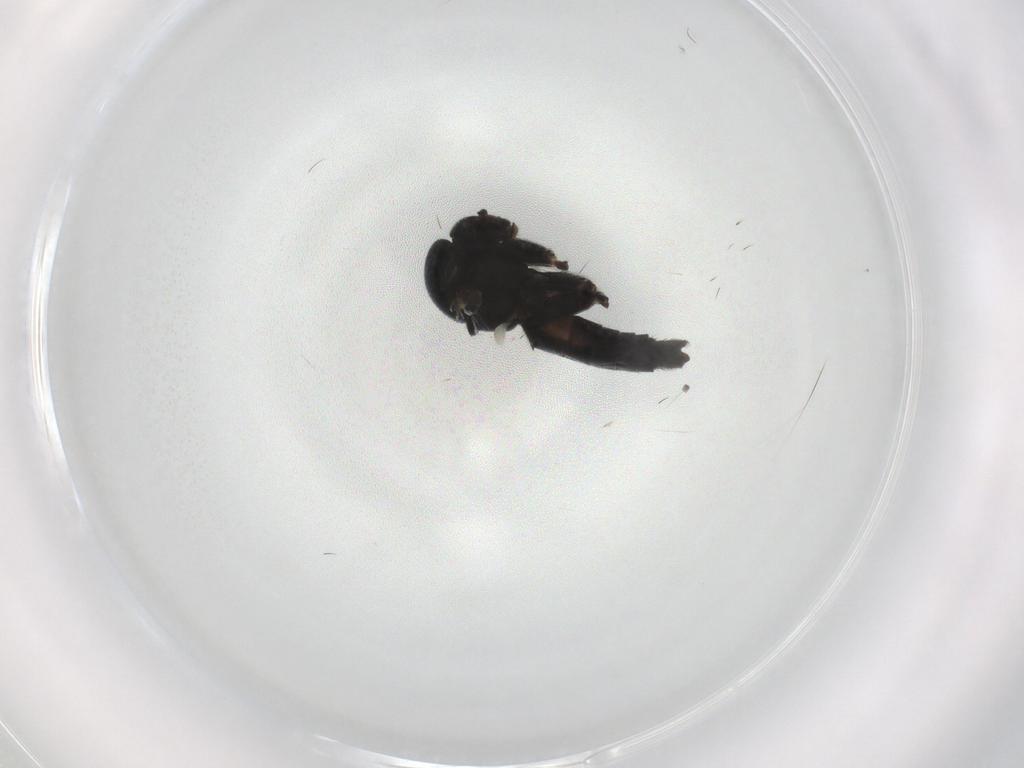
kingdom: Animalia
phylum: Arthropoda
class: Insecta
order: Diptera
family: Mycetophilidae
